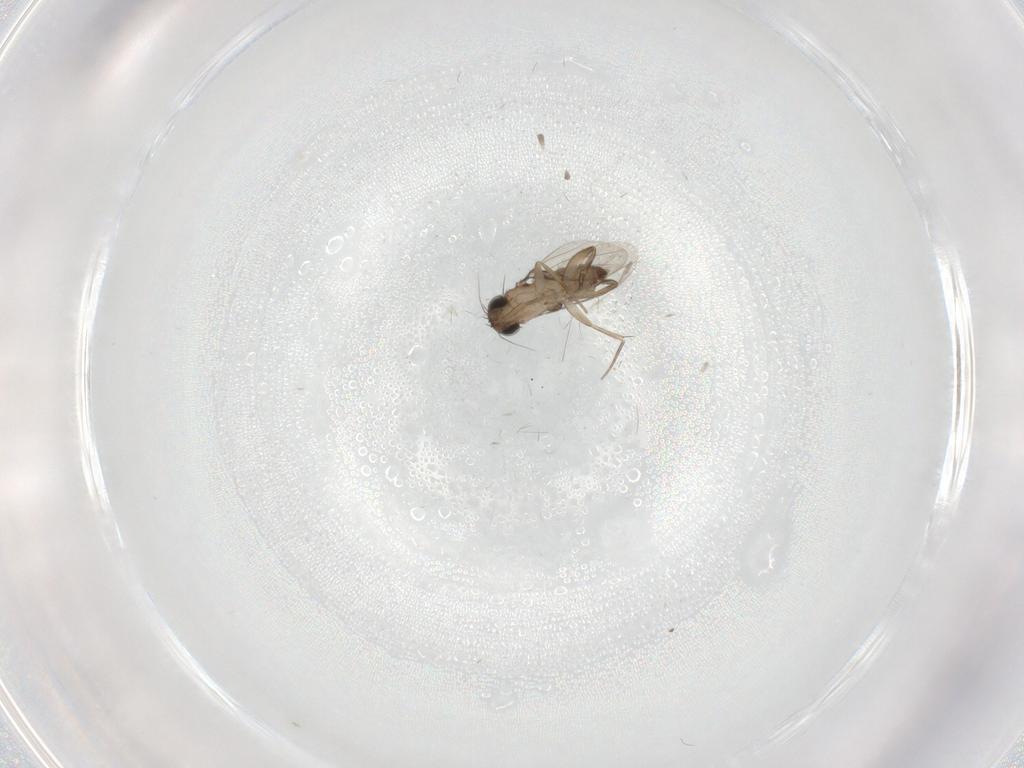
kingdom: Animalia
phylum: Arthropoda
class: Insecta
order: Diptera
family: Phoridae
